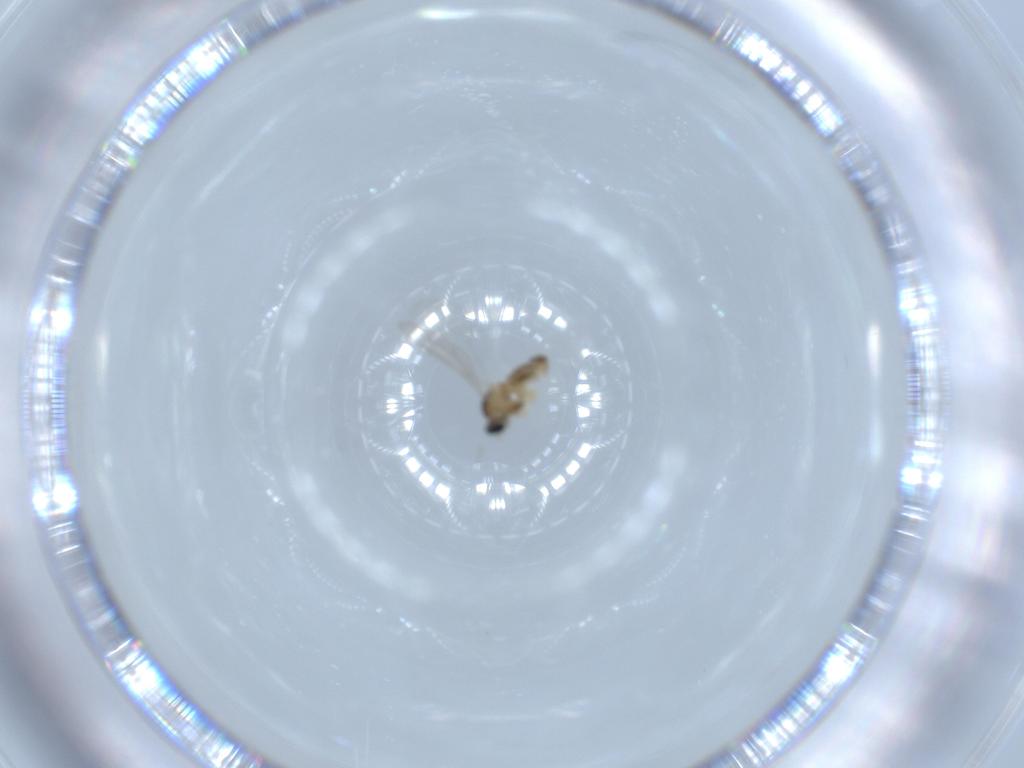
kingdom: Animalia
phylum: Arthropoda
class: Insecta
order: Diptera
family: Cecidomyiidae
